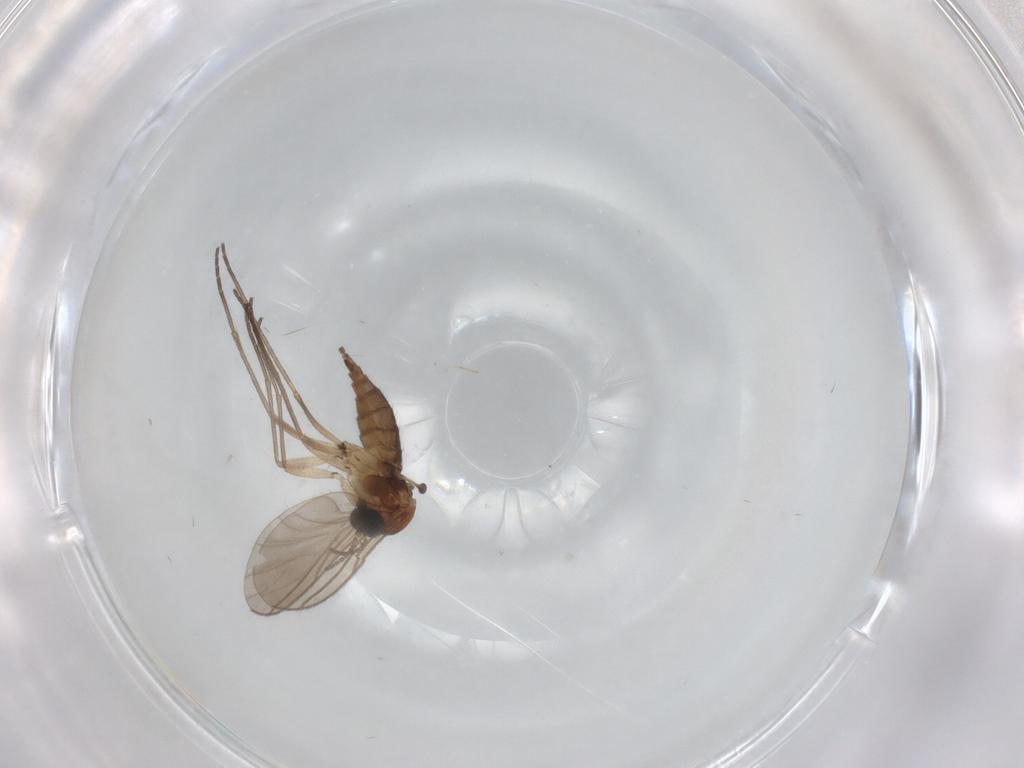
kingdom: Animalia
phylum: Arthropoda
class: Insecta
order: Diptera
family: Sciaridae
